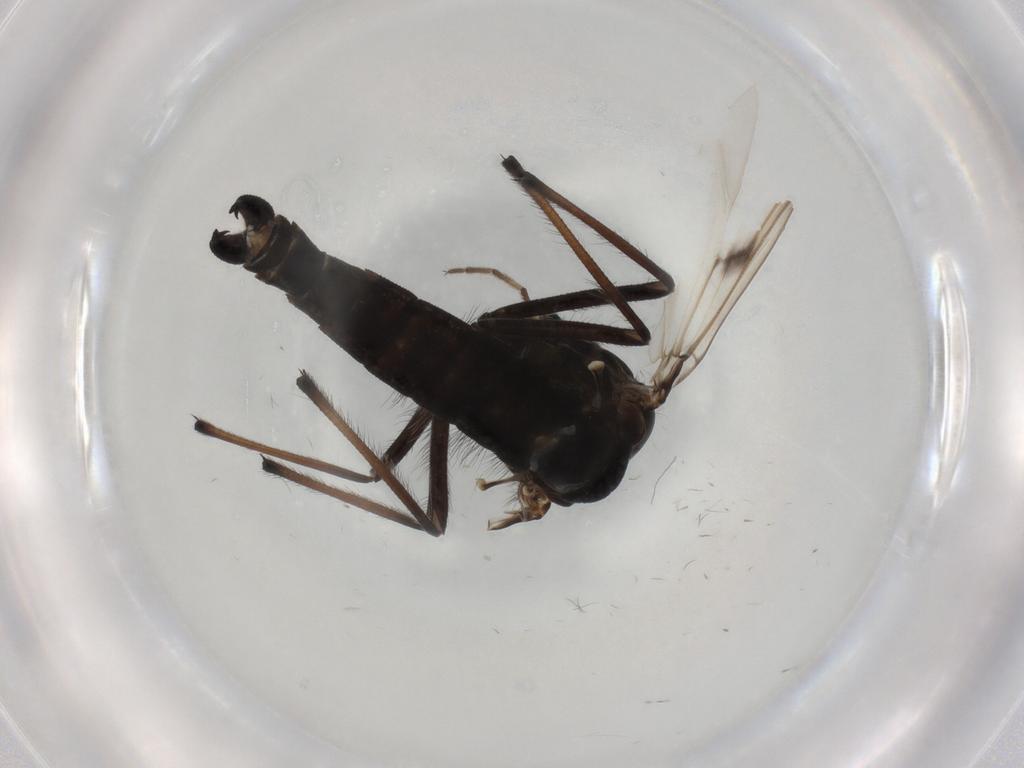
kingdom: Animalia
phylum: Arthropoda
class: Insecta
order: Diptera
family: Chironomidae
